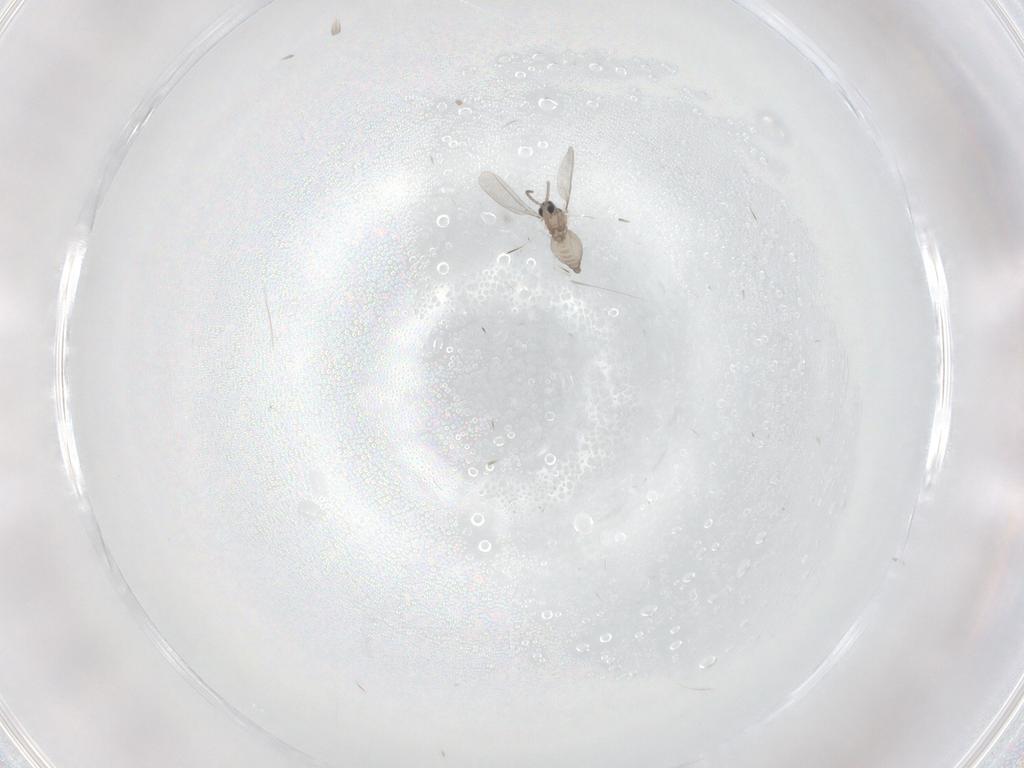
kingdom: Animalia
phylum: Arthropoda
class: Insecta
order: Diptera
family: Cecidomyiidae
